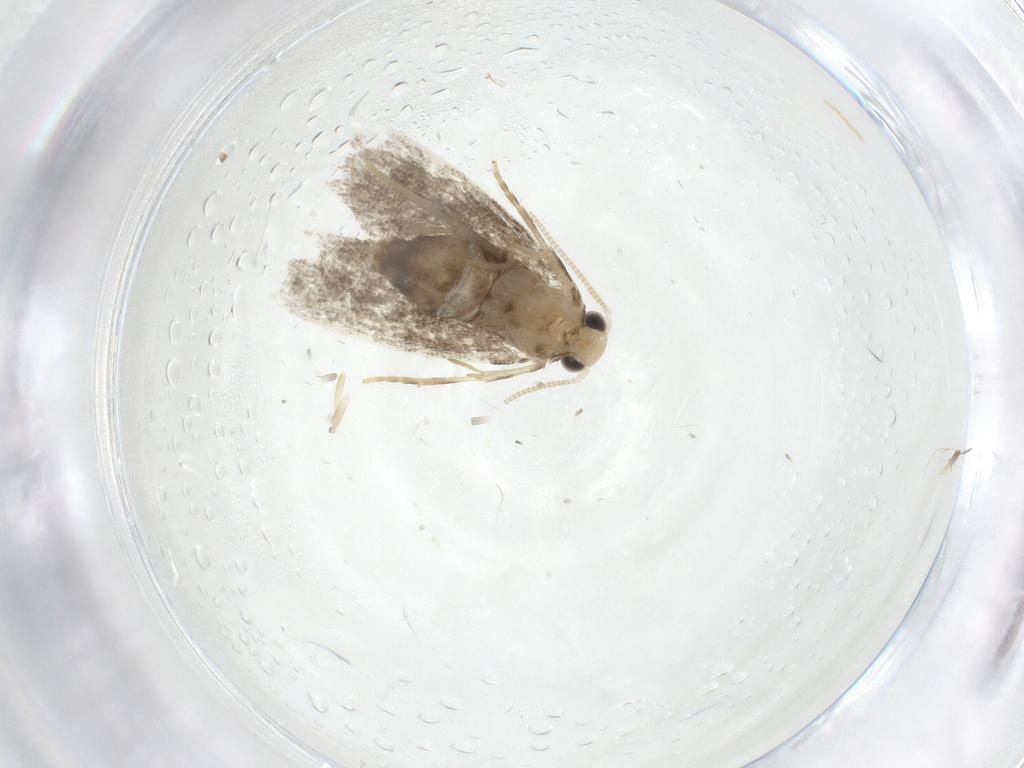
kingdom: Animalia
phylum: Arthropoda
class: Insecta
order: Lepidoptera
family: Dryadaulidae
